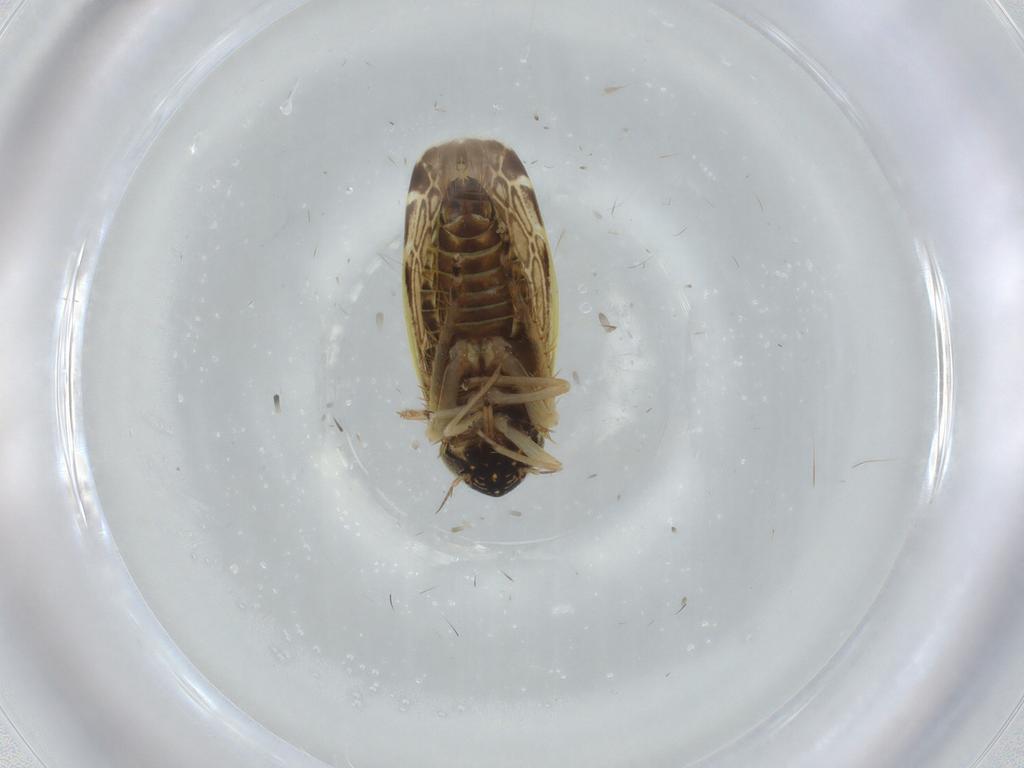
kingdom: Animalia
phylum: Arthropoda
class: Insecta
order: Hemiptera
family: Cicadellidae
